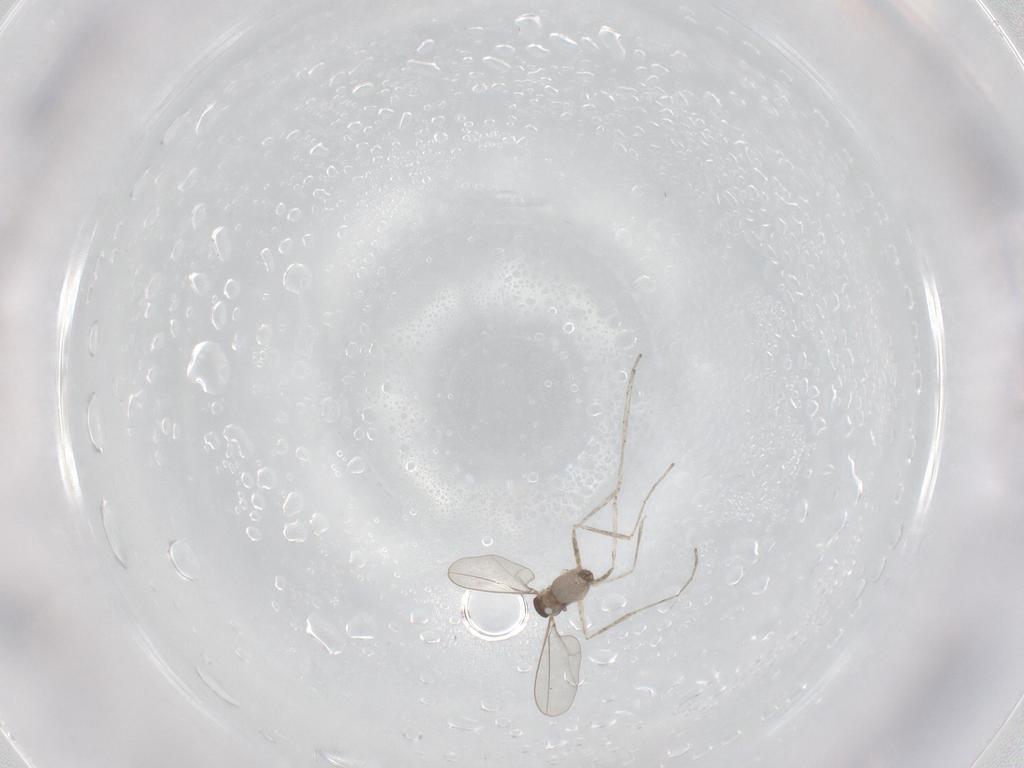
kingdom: Animalia
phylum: Arthropoda
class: Insecta
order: Diptera
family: Cecidomyiidae
